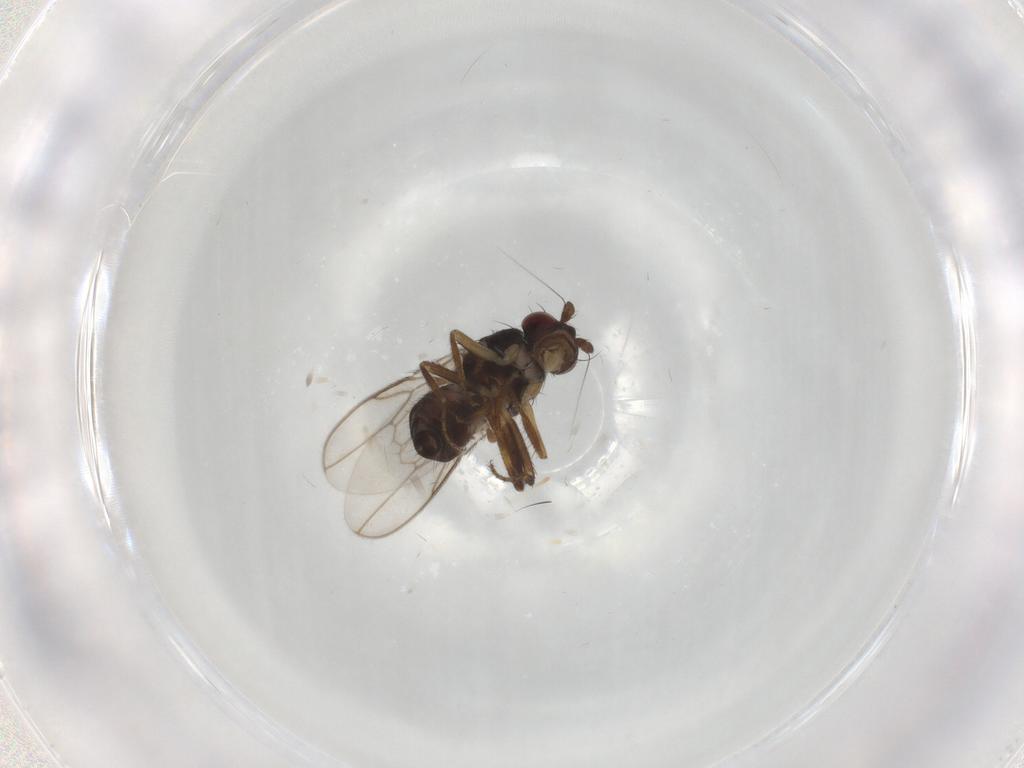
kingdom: Animalia
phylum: Arthropoda
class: Insecta
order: Diptera
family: Sphaeroceridae
